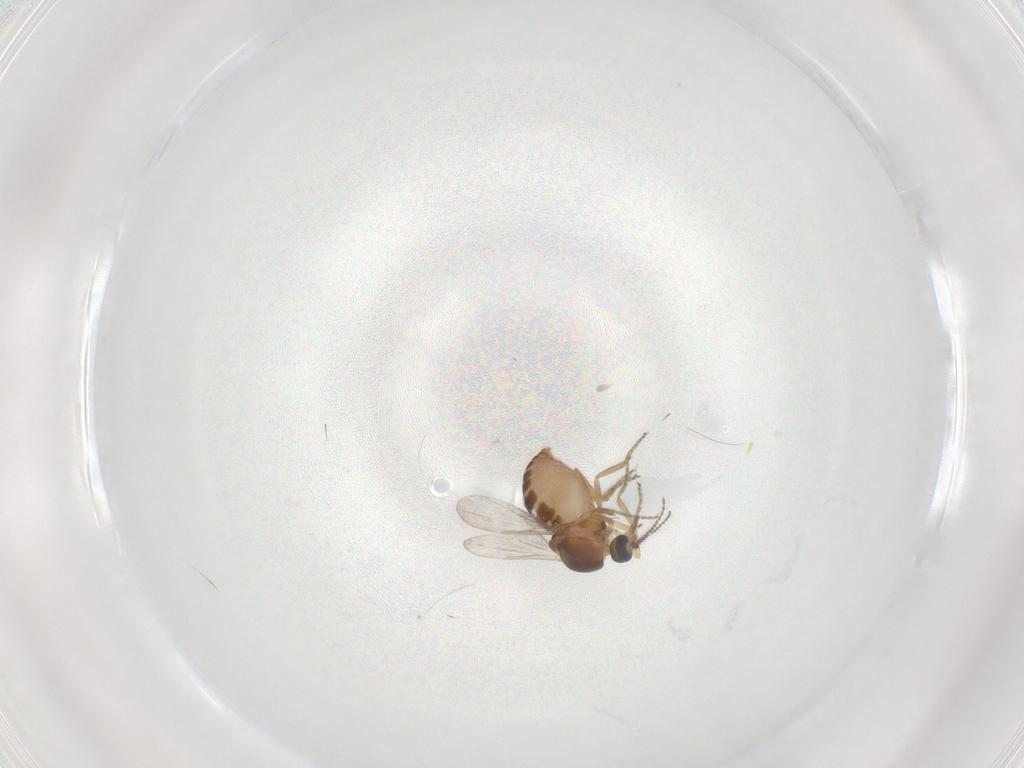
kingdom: Animalia
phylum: Arthropoda
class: Insecta
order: Diptera
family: Ceratopogonidae
